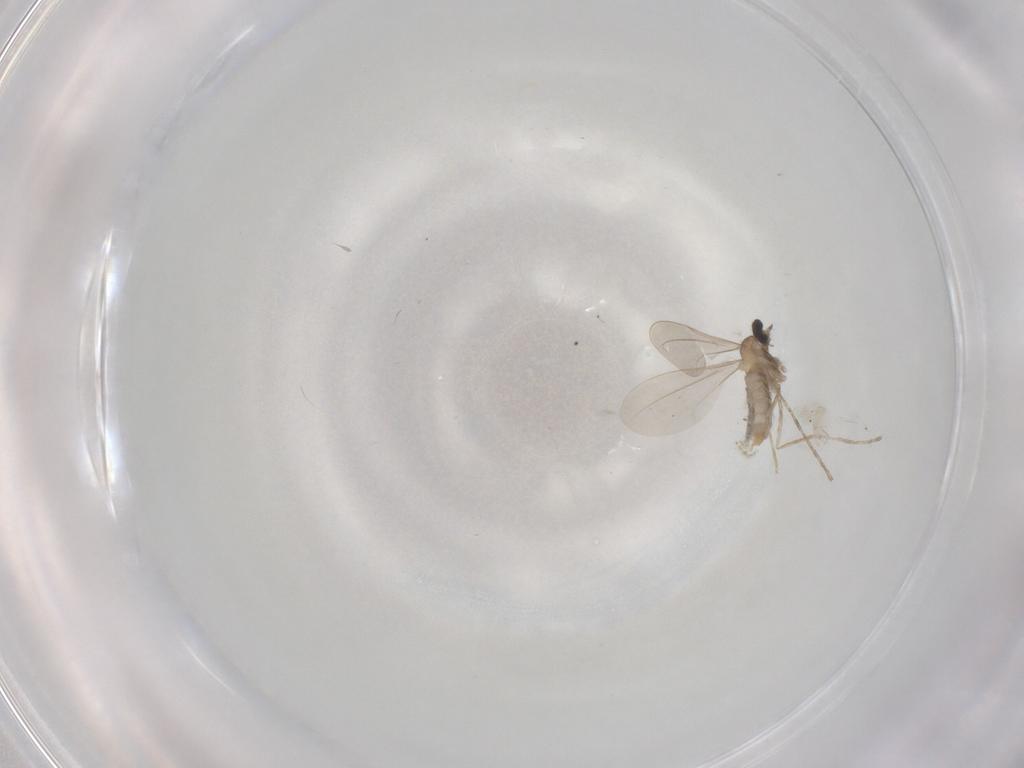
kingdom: Animalia
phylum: Arthropoda
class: Insecta
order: Diptera
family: Cecidomyiidae
